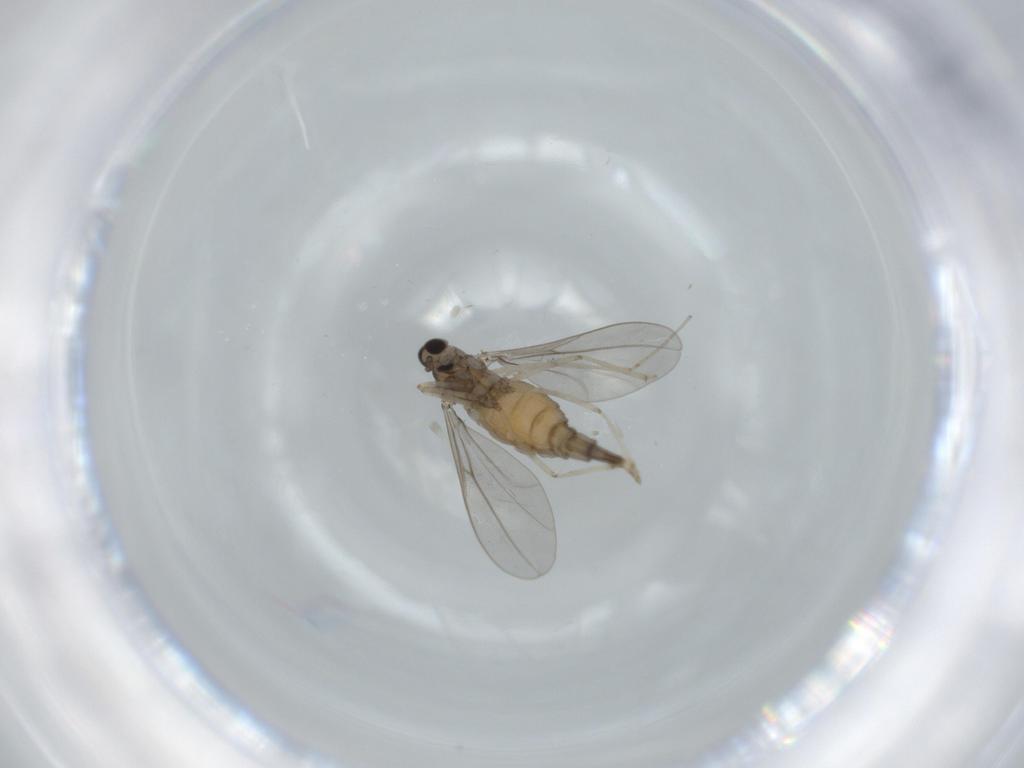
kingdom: Animalia
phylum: Arthropoda
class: Insecta
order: Diptera
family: Cecidomyiidae
